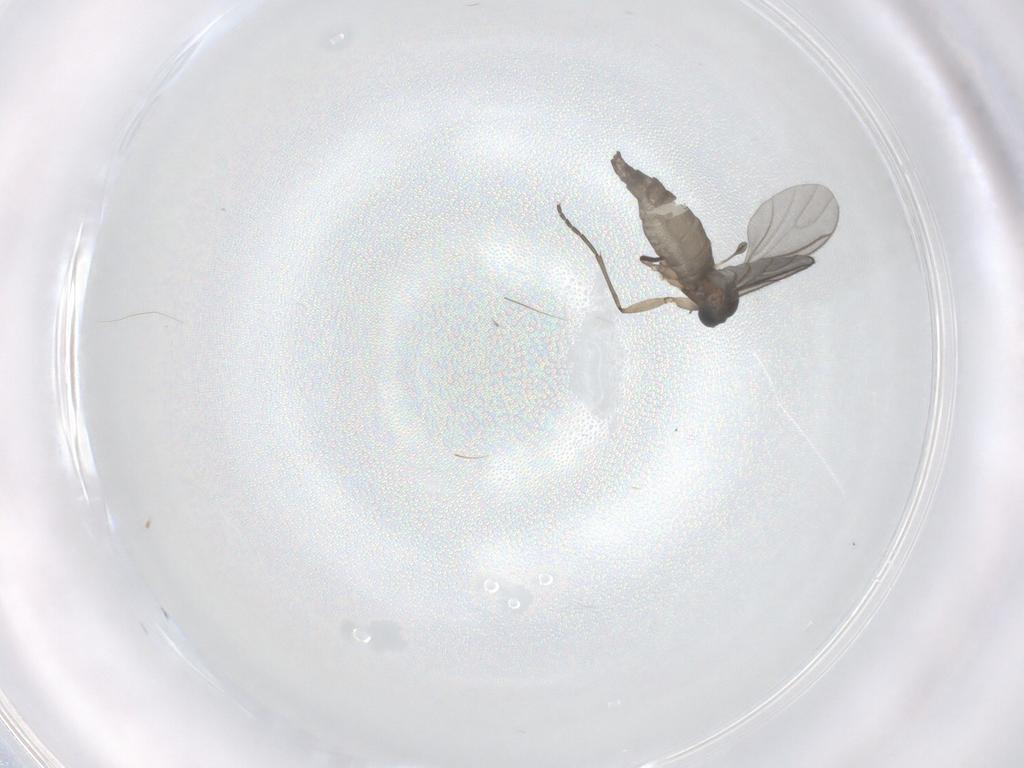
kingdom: Animalia
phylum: Arthropoda
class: Insecta
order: Diptera
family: Sciaridae
